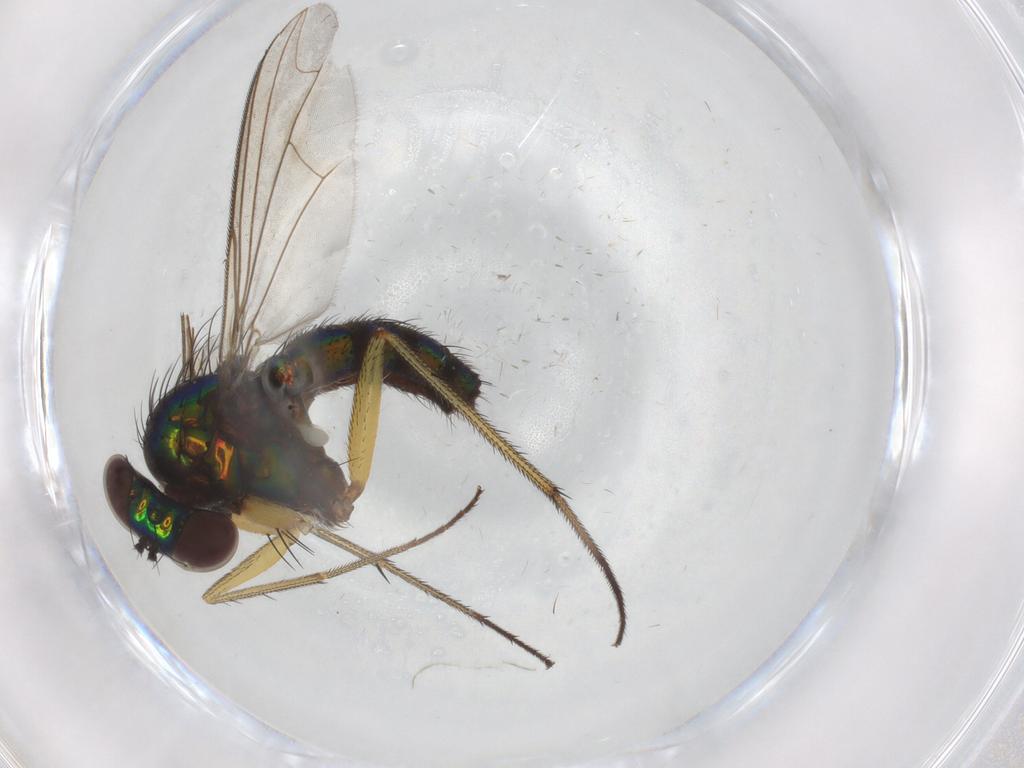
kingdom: Animalia
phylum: Arthropoda
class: Insecta
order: Diptera
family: Dolichopodidae
